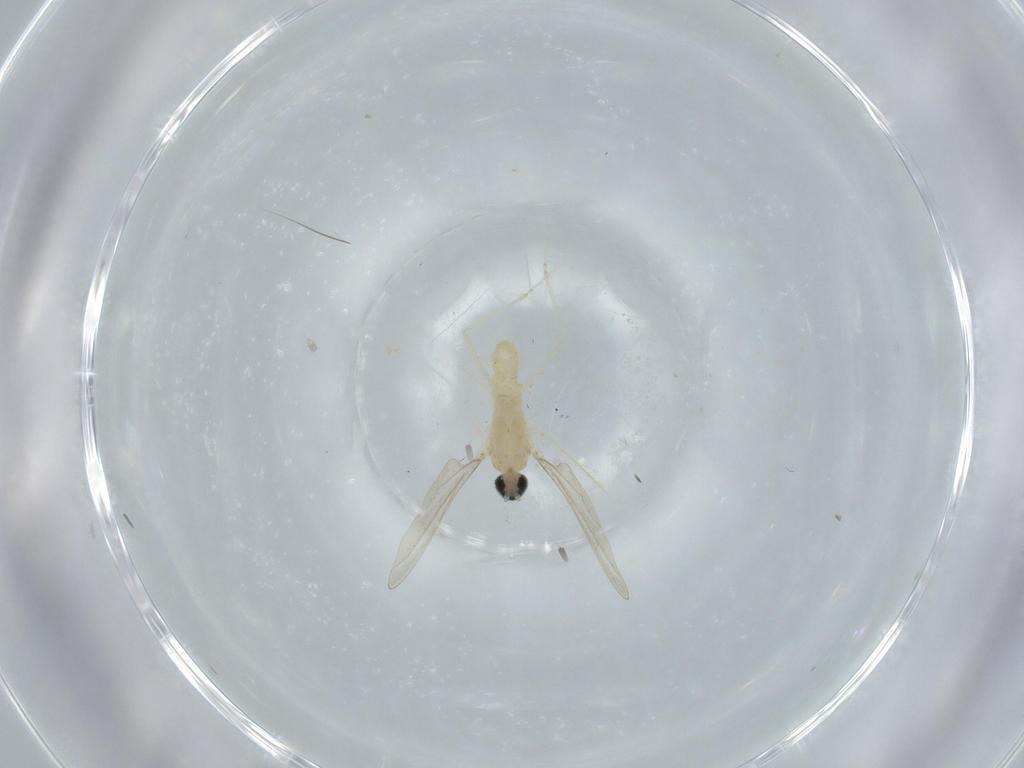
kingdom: Animalia
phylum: Arthropoda
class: Insecta
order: Diptera
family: Cecidomyiidae
